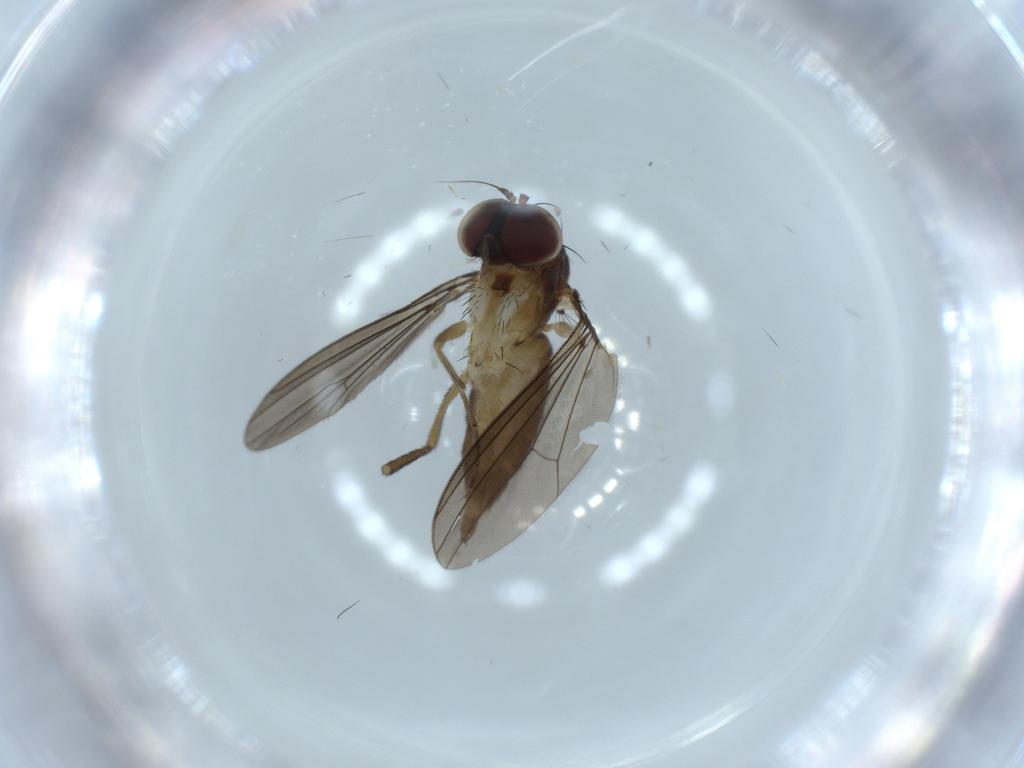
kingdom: Animalia
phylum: Arthropoda
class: Insecta
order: Diptera
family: Dolichopodidae
